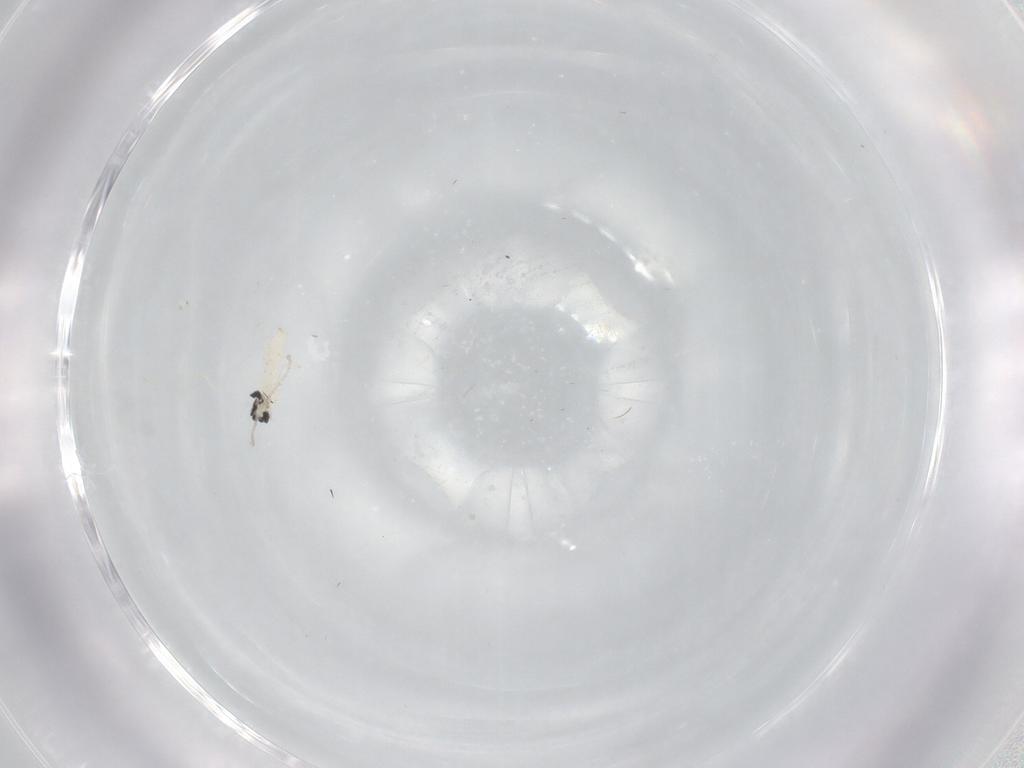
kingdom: Animalia
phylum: Arthropoda
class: Insecta
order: Diptera
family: Cecidomyiidae
